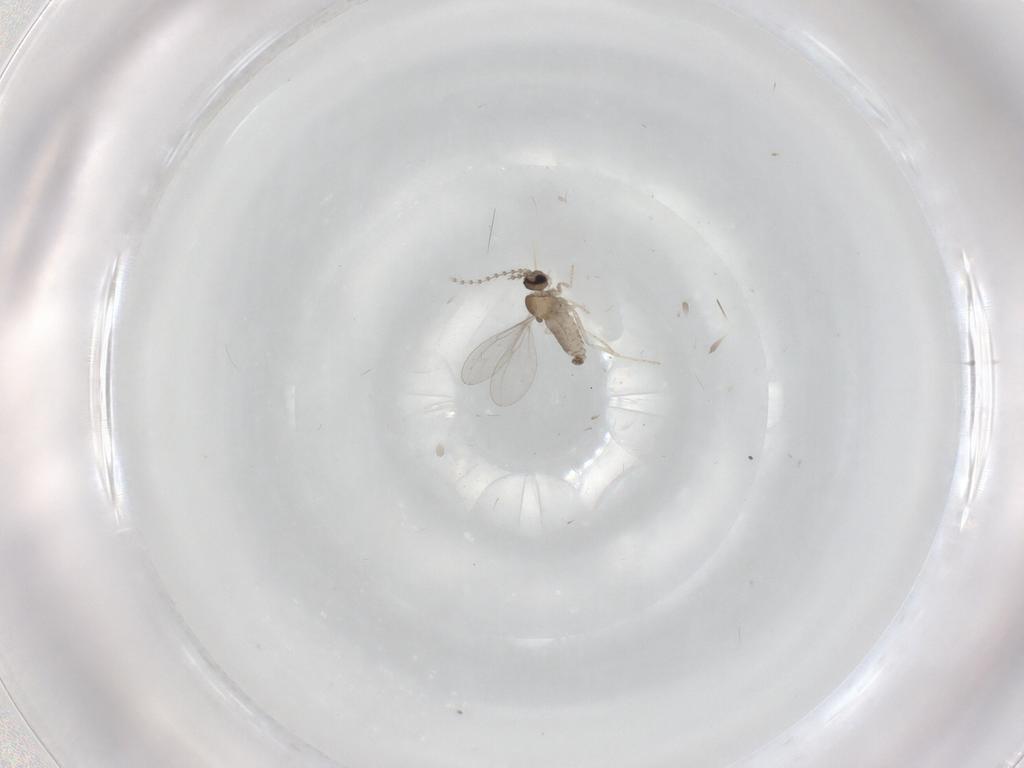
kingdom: Animalia
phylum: Arthropoda
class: Insecta
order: Diptera
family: Cecidomyiidae
